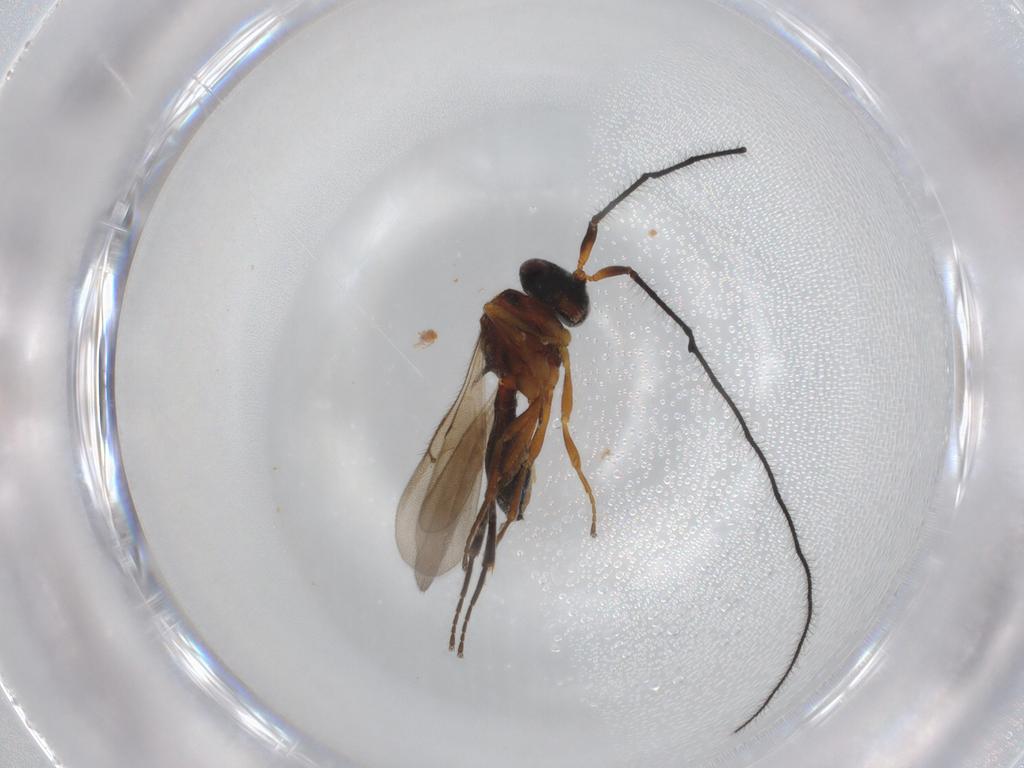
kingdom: Animalia
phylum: Arthropoda
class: Insecta
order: Hymenoptera
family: Scelionidae
